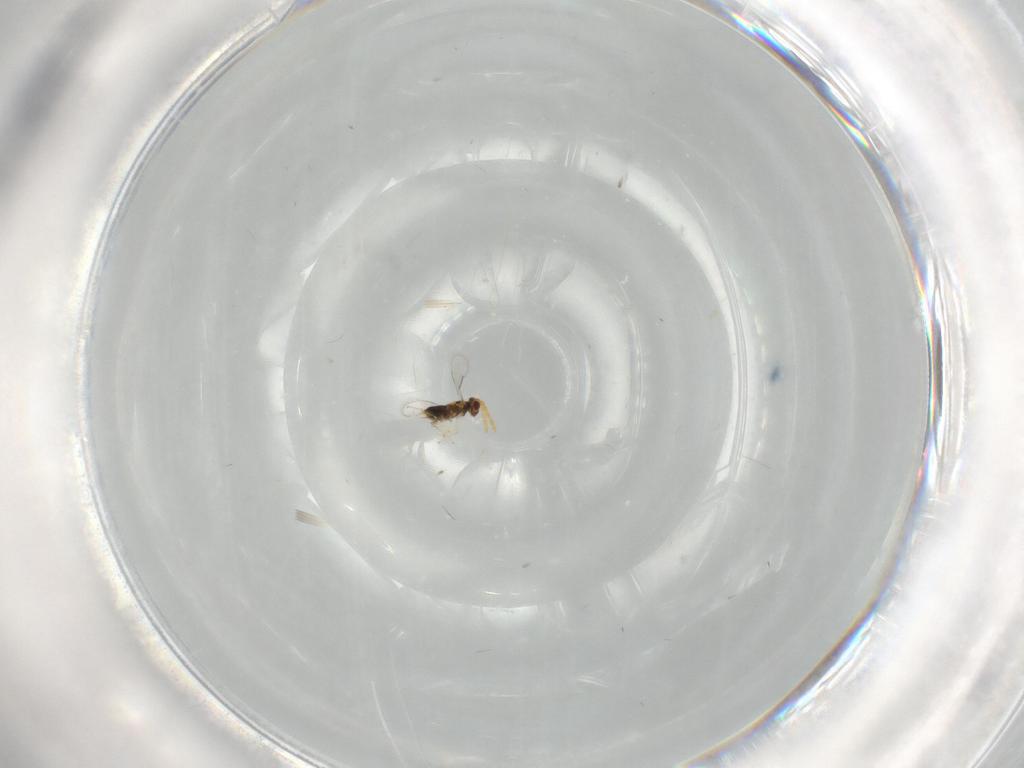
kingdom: Animalia
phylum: Arthropoda
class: Insecta
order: Hymenoptera
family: Aphelinidae
